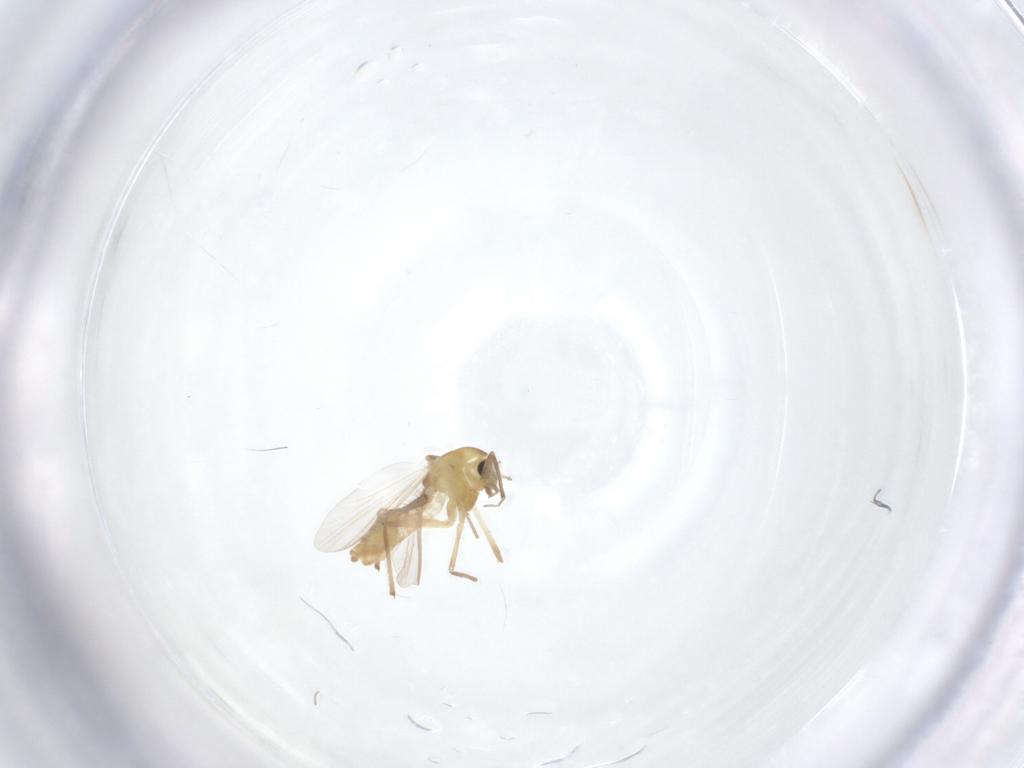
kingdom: Animalia
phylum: Arthropoda
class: Insecta
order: Diptera
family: Chironomidae
